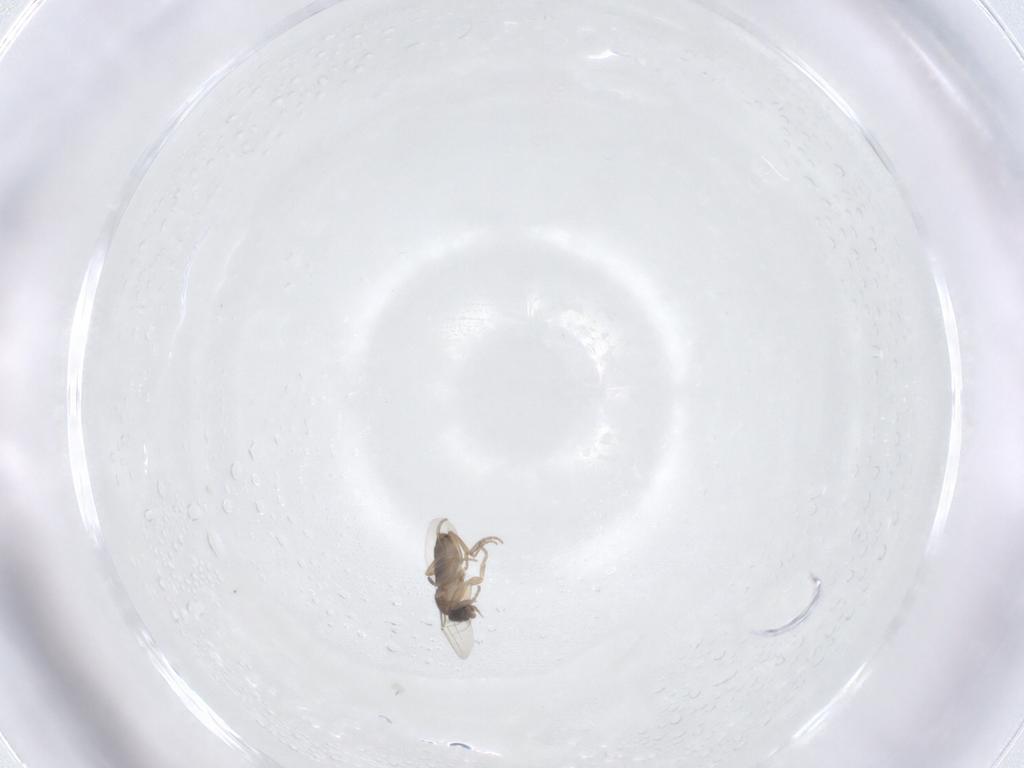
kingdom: Animalia
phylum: Arthropoda
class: Insecta
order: Diptera
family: Phoridae
